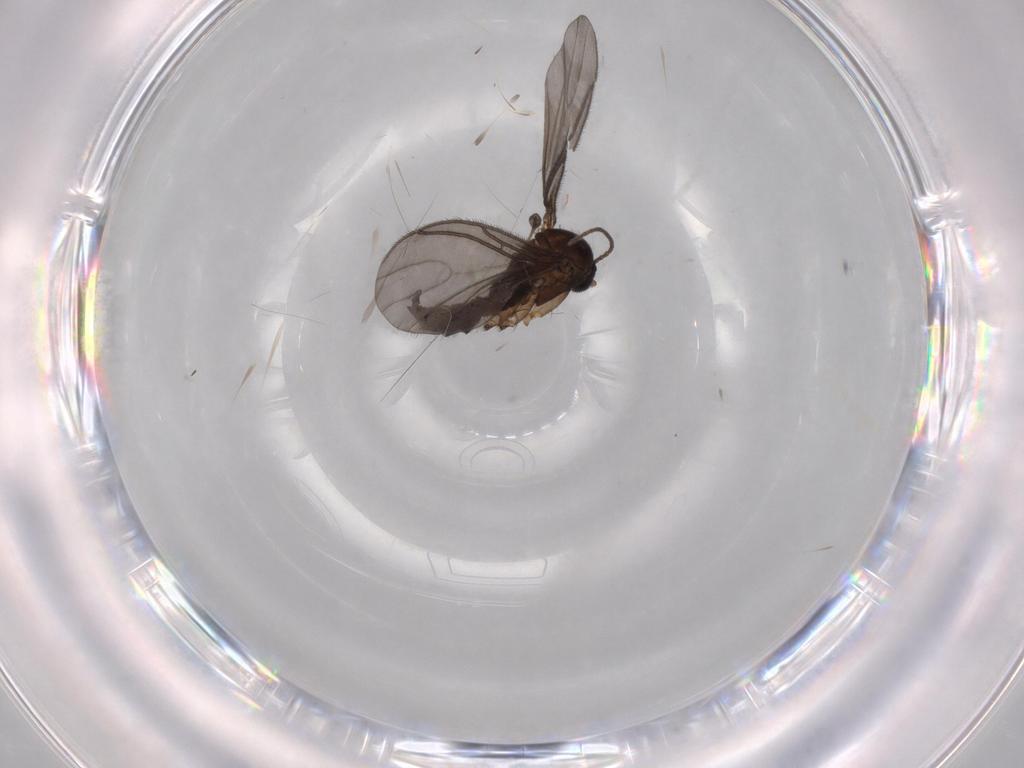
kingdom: Animalia
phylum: Arthropoda
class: Insecta
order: Diptera
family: Sciaridae
